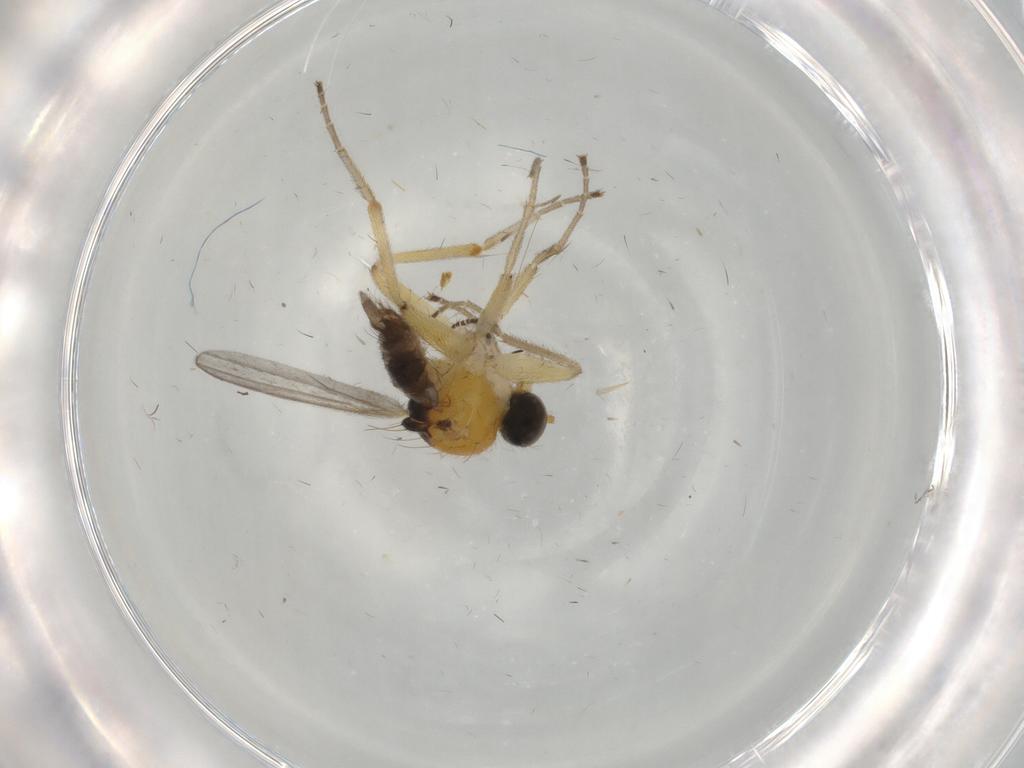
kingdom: Animalia
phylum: Arthropoda
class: Insecta
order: Diptera
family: Hybotidae
